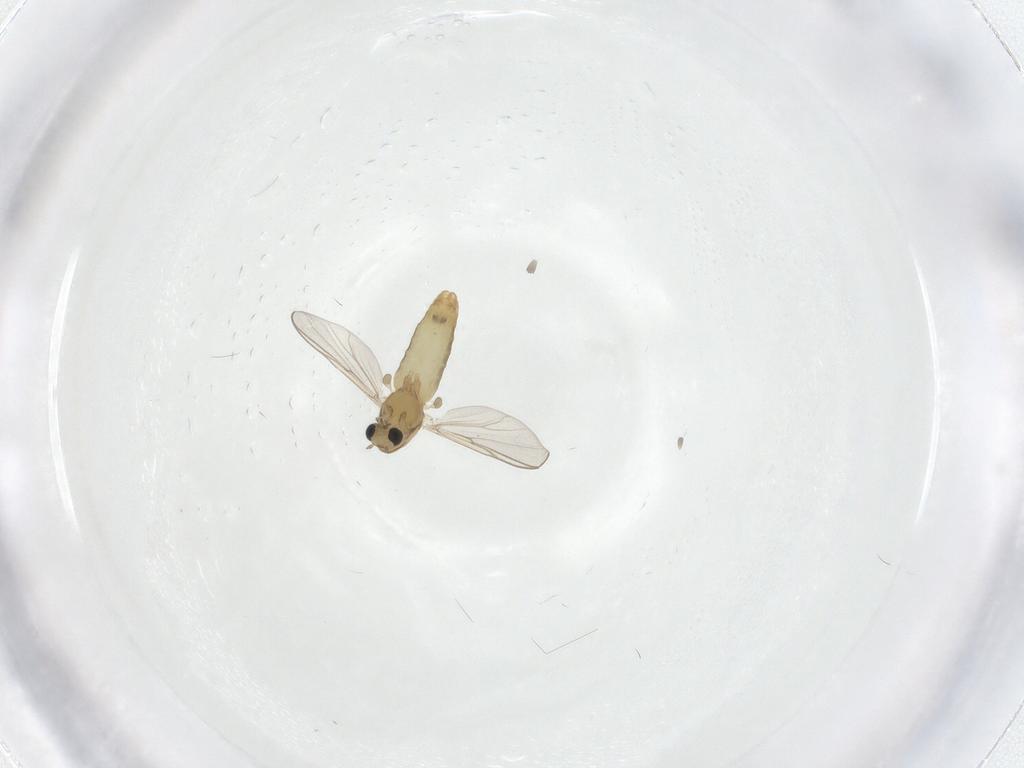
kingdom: Animalia
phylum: Arthropoda
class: Insecta
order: Diptera
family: Chironomidae
